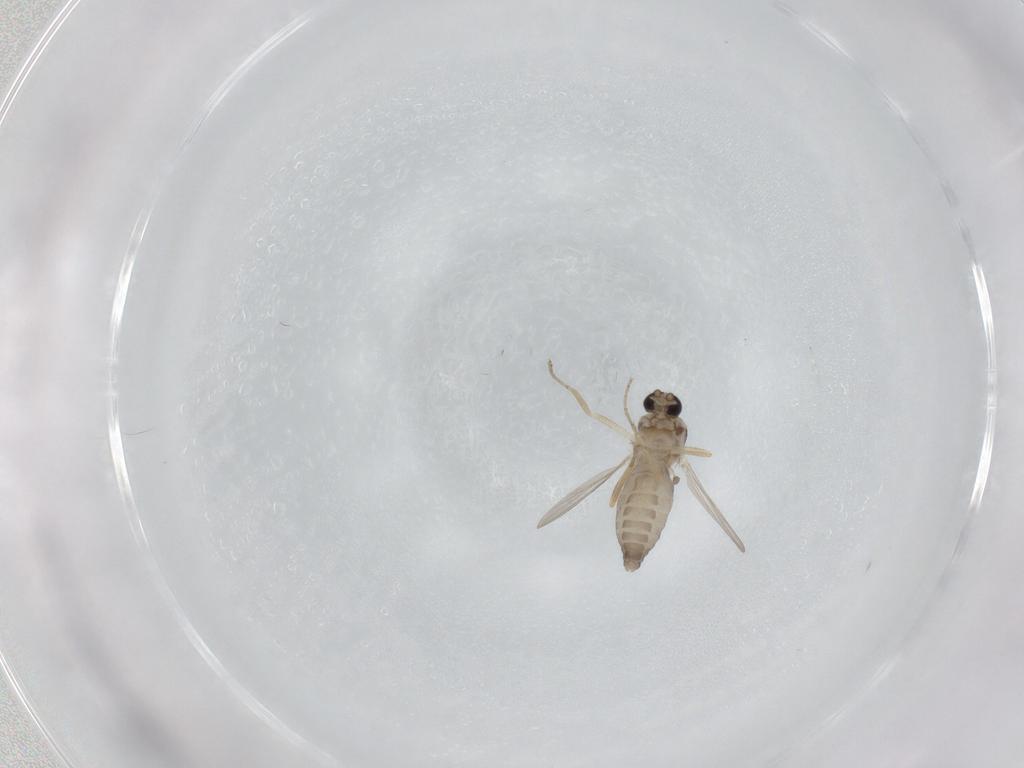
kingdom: Animalia
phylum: Arthropoda
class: Insecta
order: Diptera
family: Ceratopogonidae
